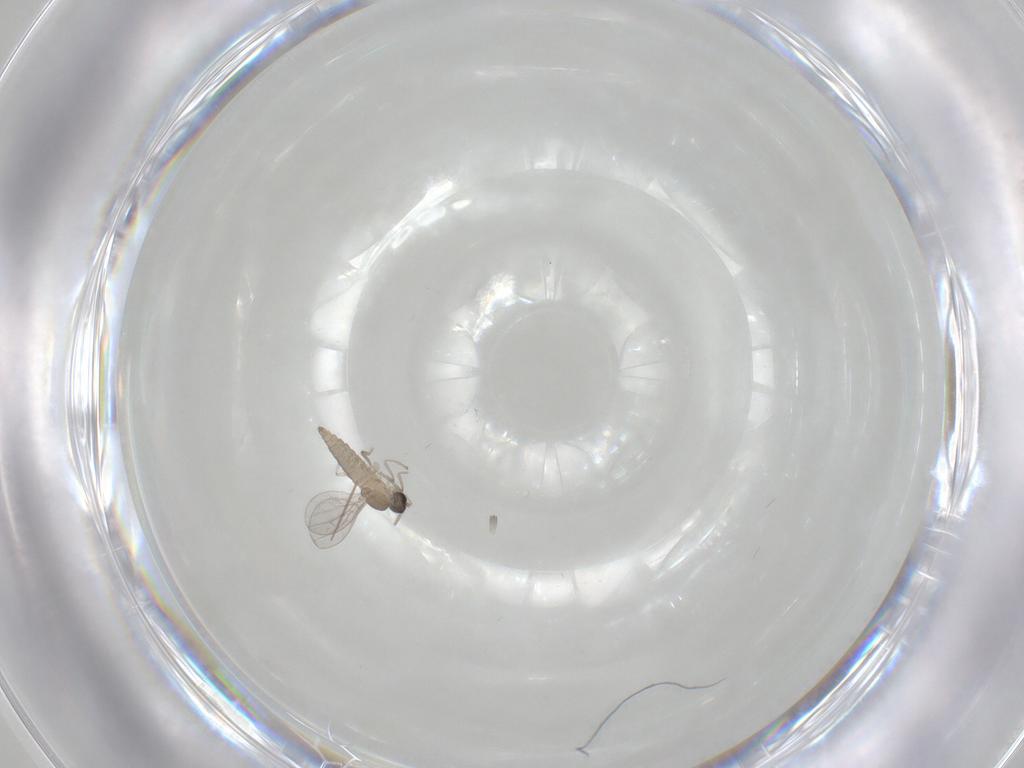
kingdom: Animalia
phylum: Arthropoda
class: Insecta
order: Diptera
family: Cecidomyiidae
